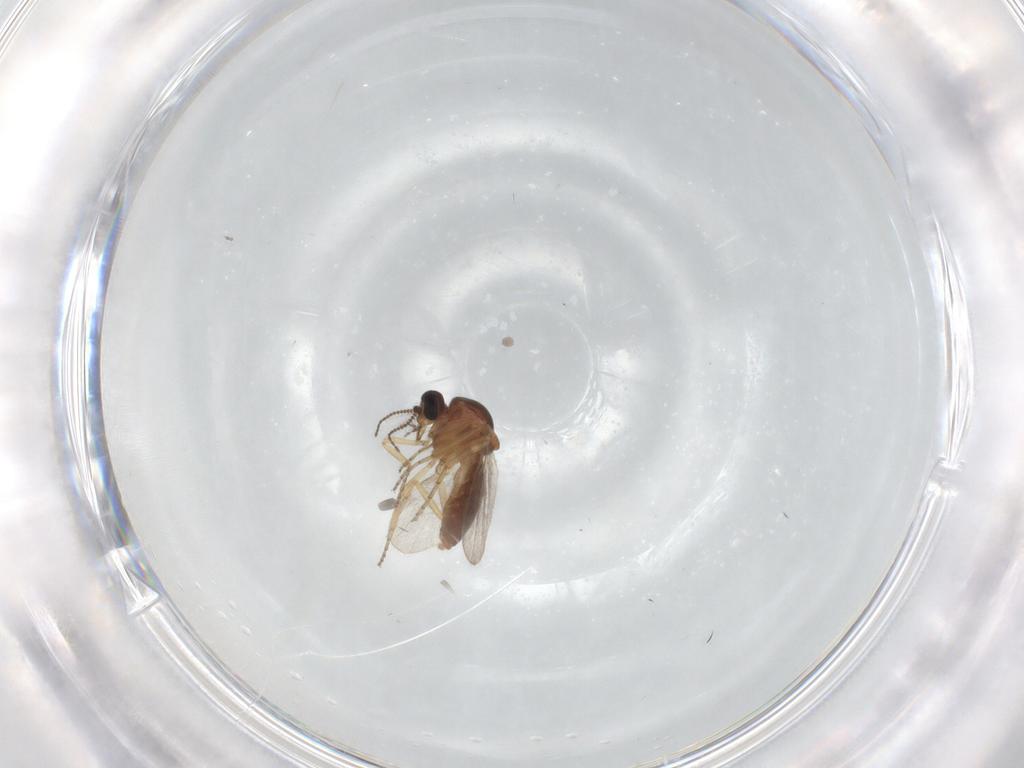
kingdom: Animalia
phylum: Arthropoda
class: Insecta
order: Diptera
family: Ceratopogonidae
